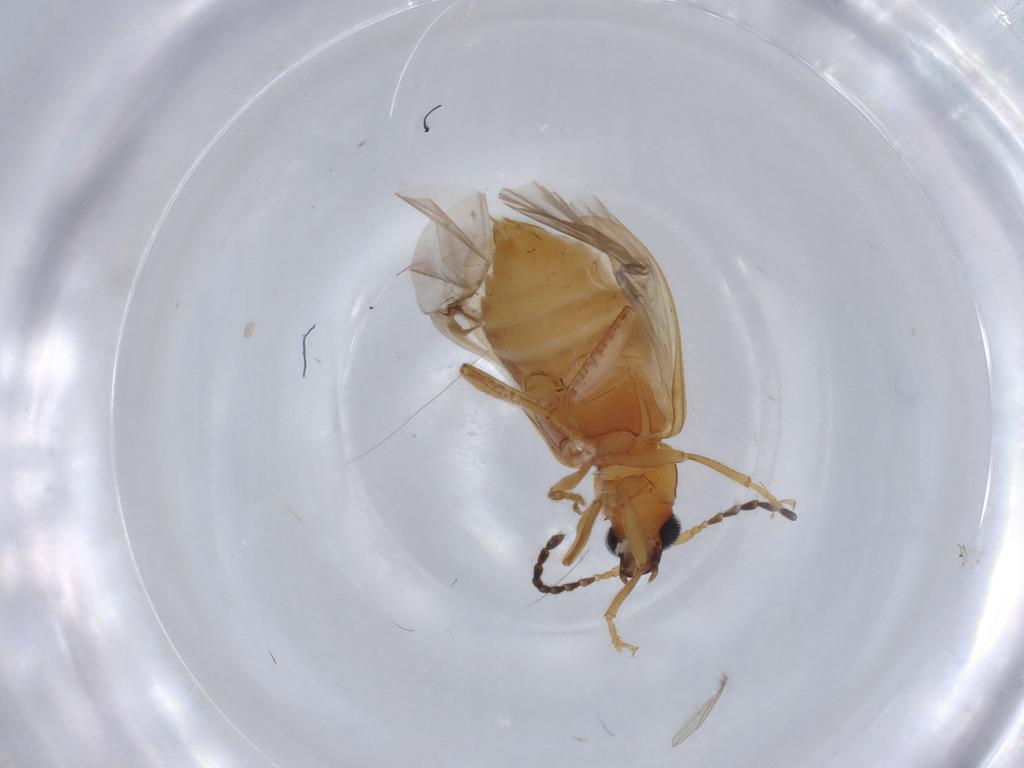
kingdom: Animalia
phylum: Arthropoda
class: Insecta
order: Coleoptera
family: Chrysomelidae
